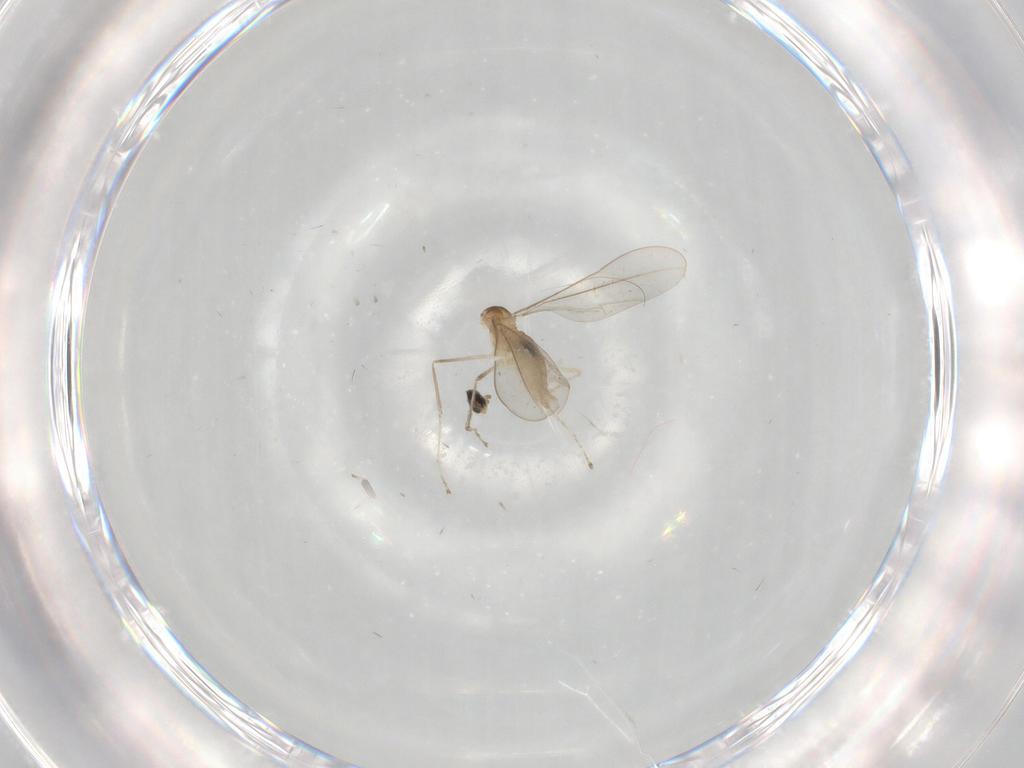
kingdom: Animalia
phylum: Arthropoda
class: Insecta
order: Diptera
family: Cecidomyiidae
